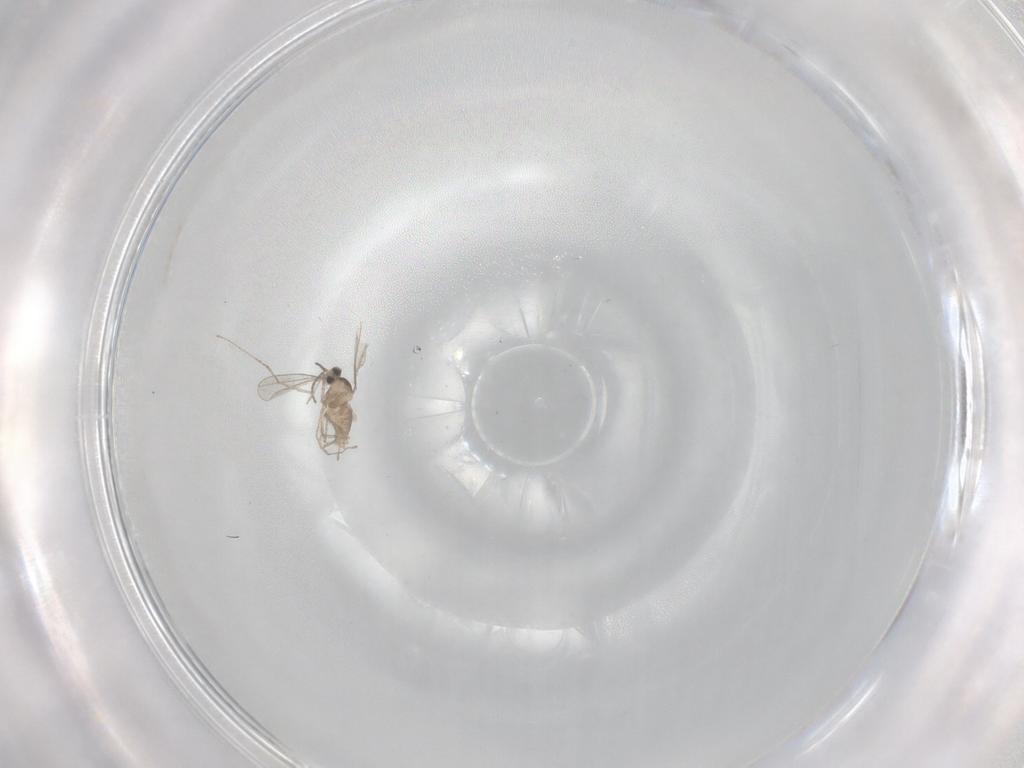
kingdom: Animalia
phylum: Arthropoda
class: Insecta
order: Diptera
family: Cecidomyiidae
